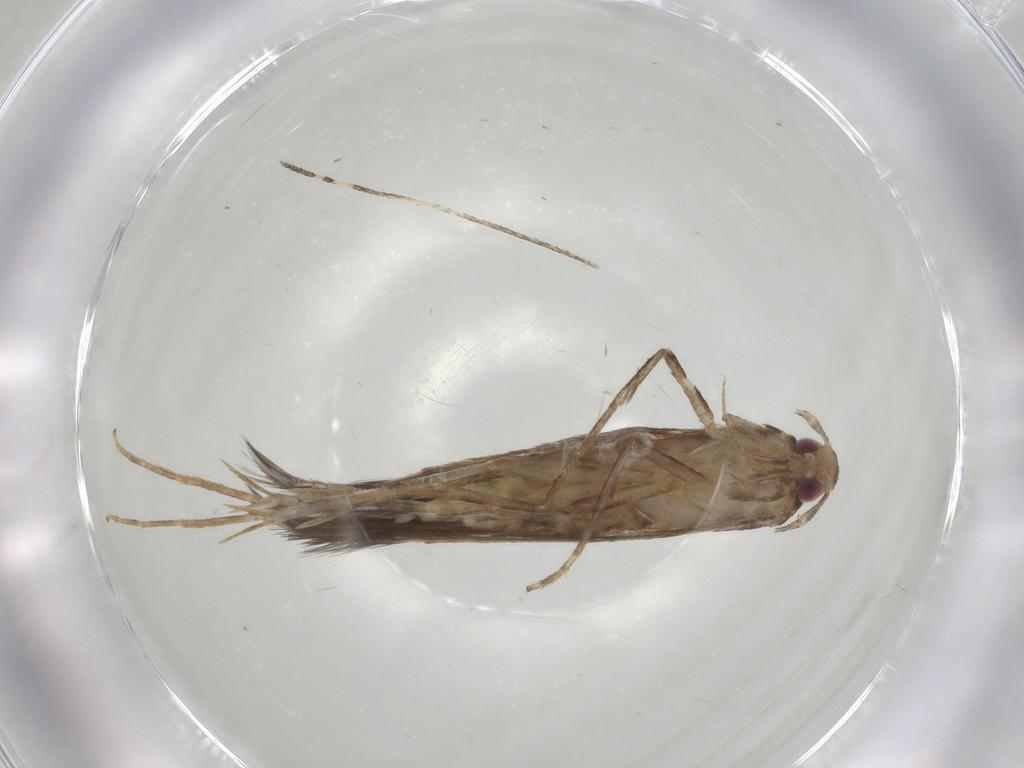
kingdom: Animalia
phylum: Arthropoda
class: Insecta
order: Lepidoptera
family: Cosmopterigidae
